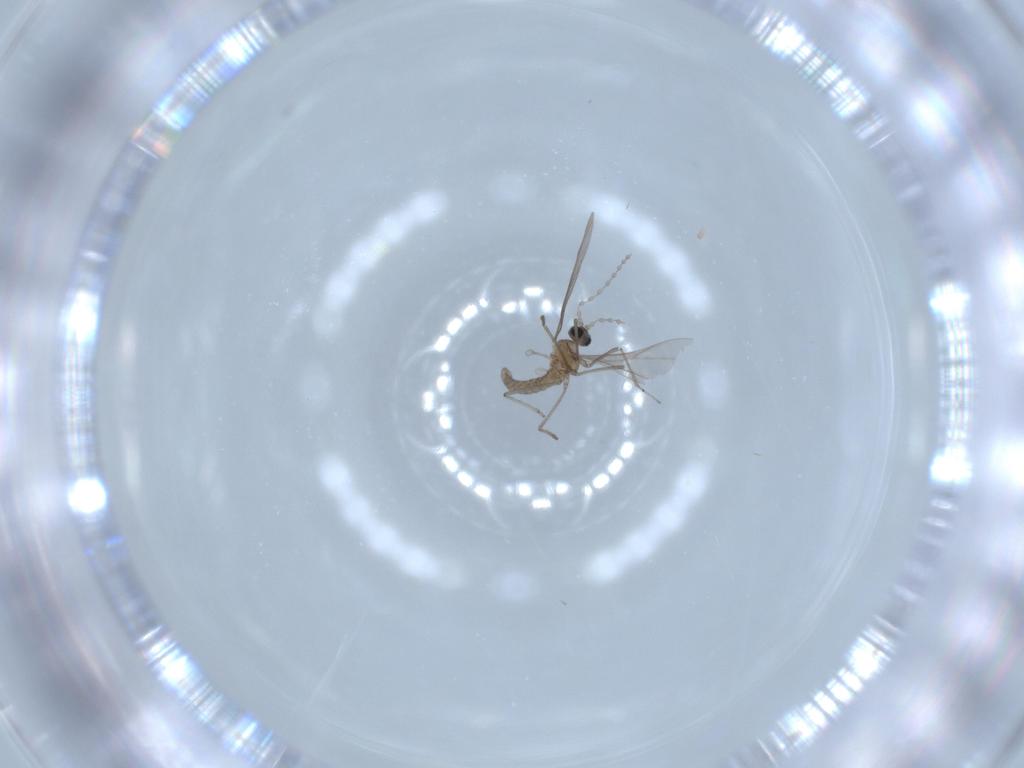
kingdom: Animalia
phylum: Arthropoda
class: Insecta
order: Diptera
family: Cecidomyiidae
